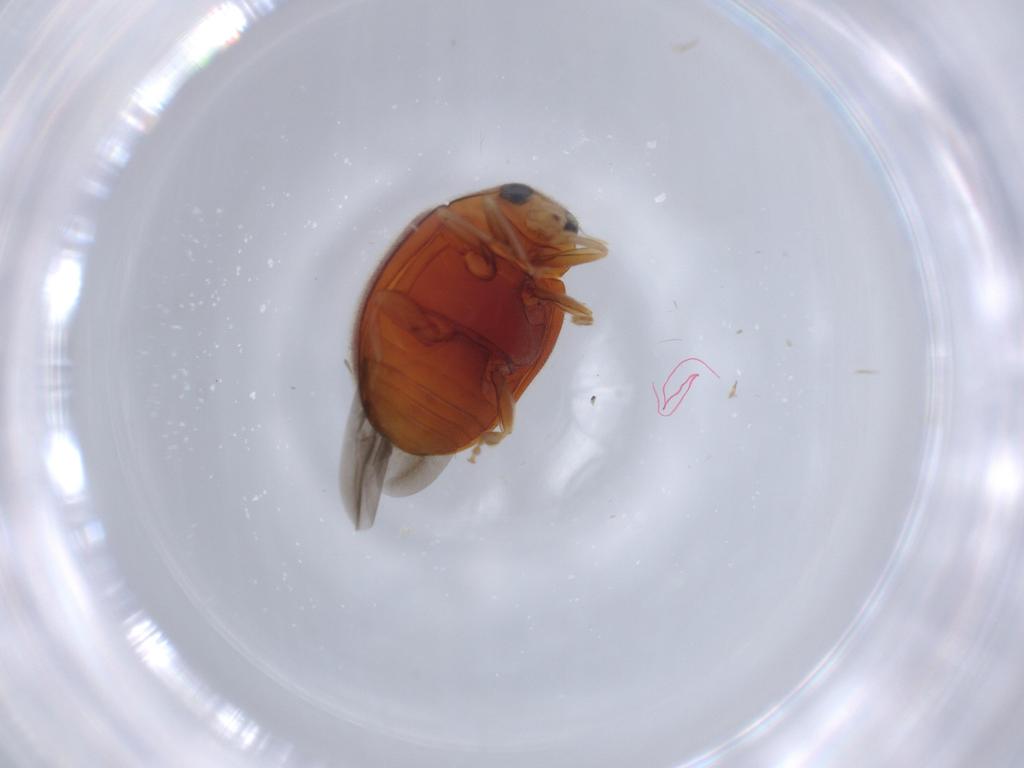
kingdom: Animalia
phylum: Arthropoda
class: Insecta
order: Coleoptera
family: Coccinellidae
